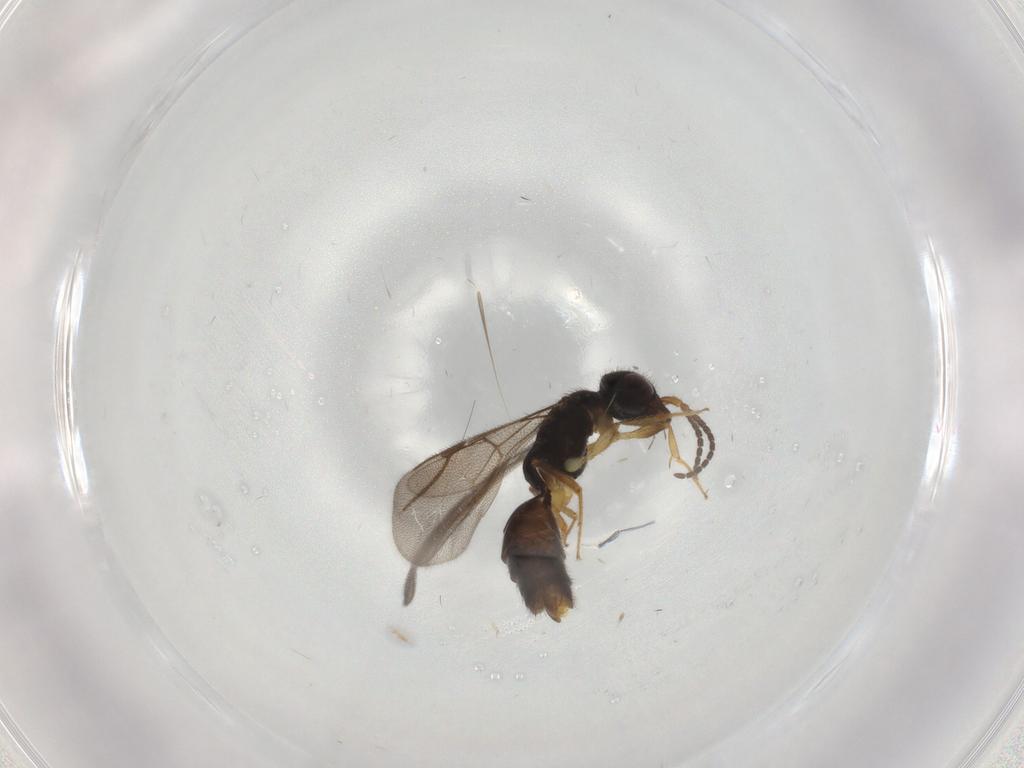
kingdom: Animalia
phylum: Arthropoda
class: Insecta
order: Hymenoptera
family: Bethylidae
